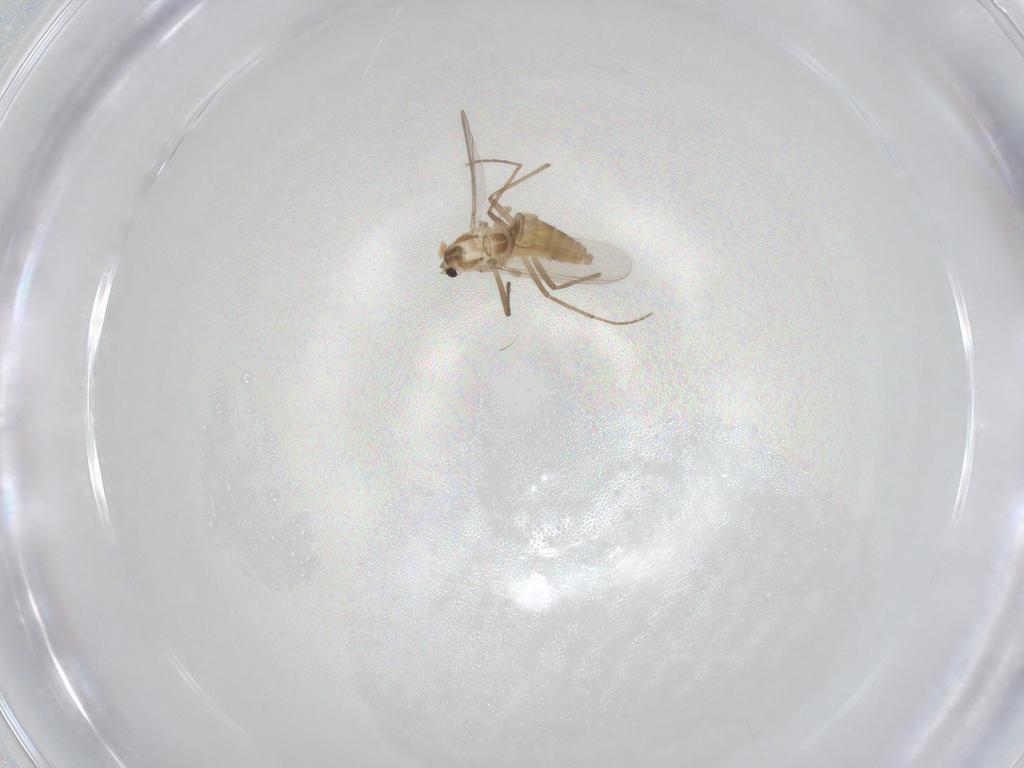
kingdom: Animalia
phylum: Arthropoda
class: Insecta
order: Diptera
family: Chironomidae
